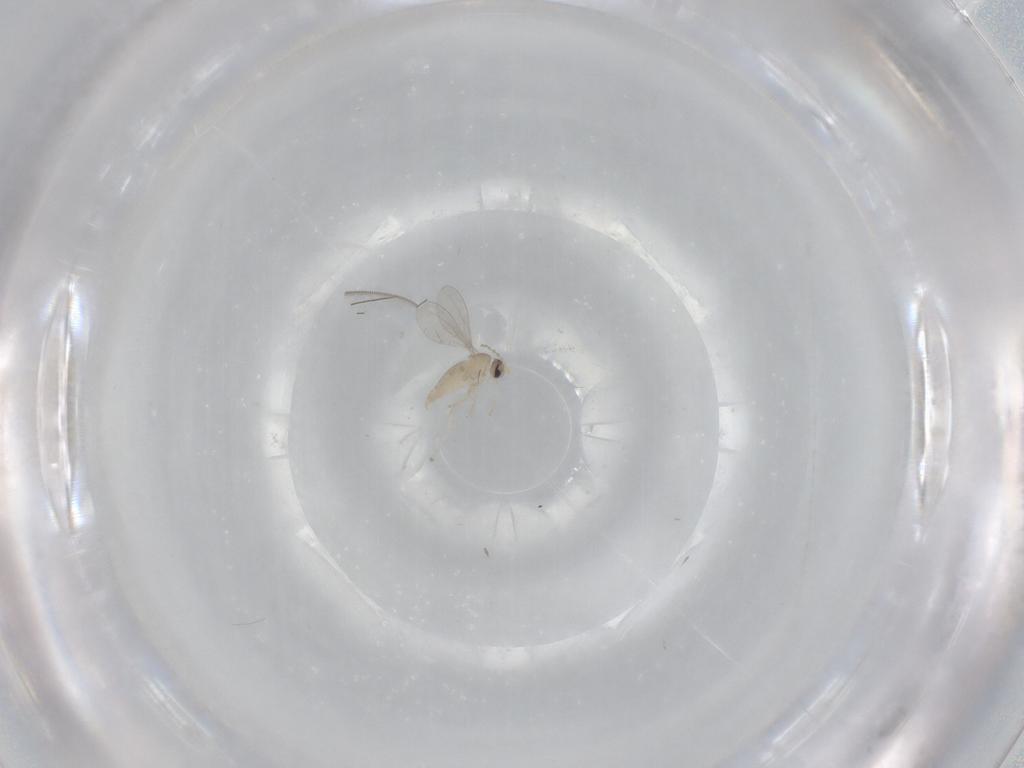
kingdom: Animalia
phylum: Arthropoda
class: Insecta
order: Diptera
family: Cecidomyiidae
